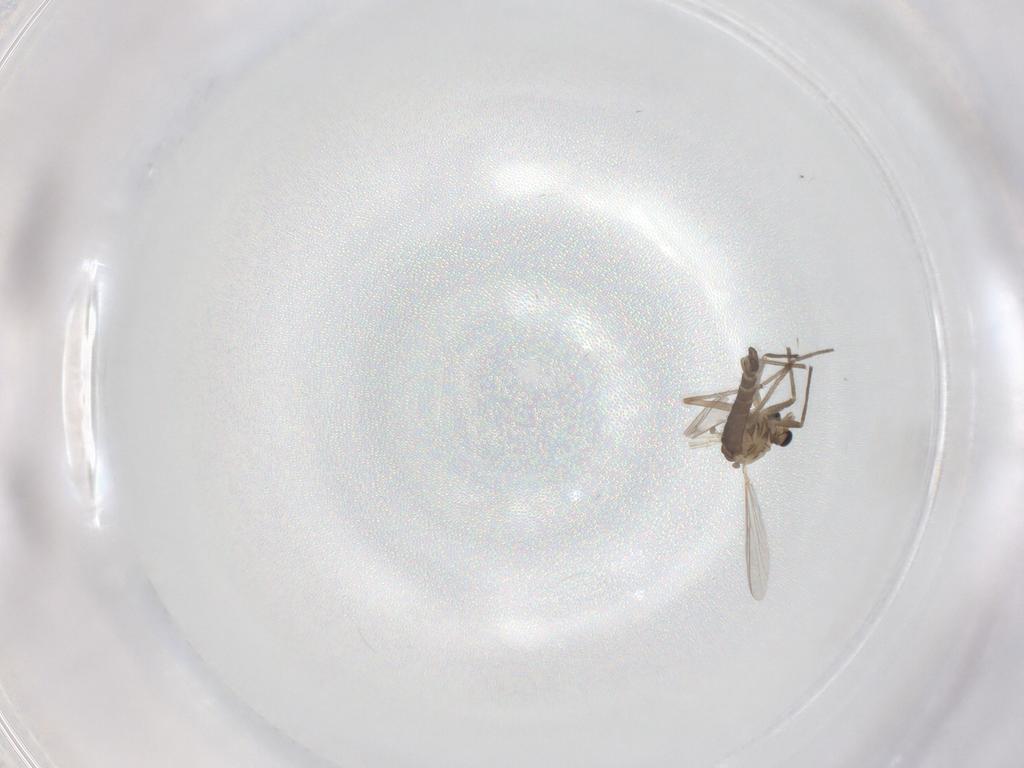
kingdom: Animalia
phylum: Arthropoda
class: Insecta
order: Diptera
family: Chironomidae
